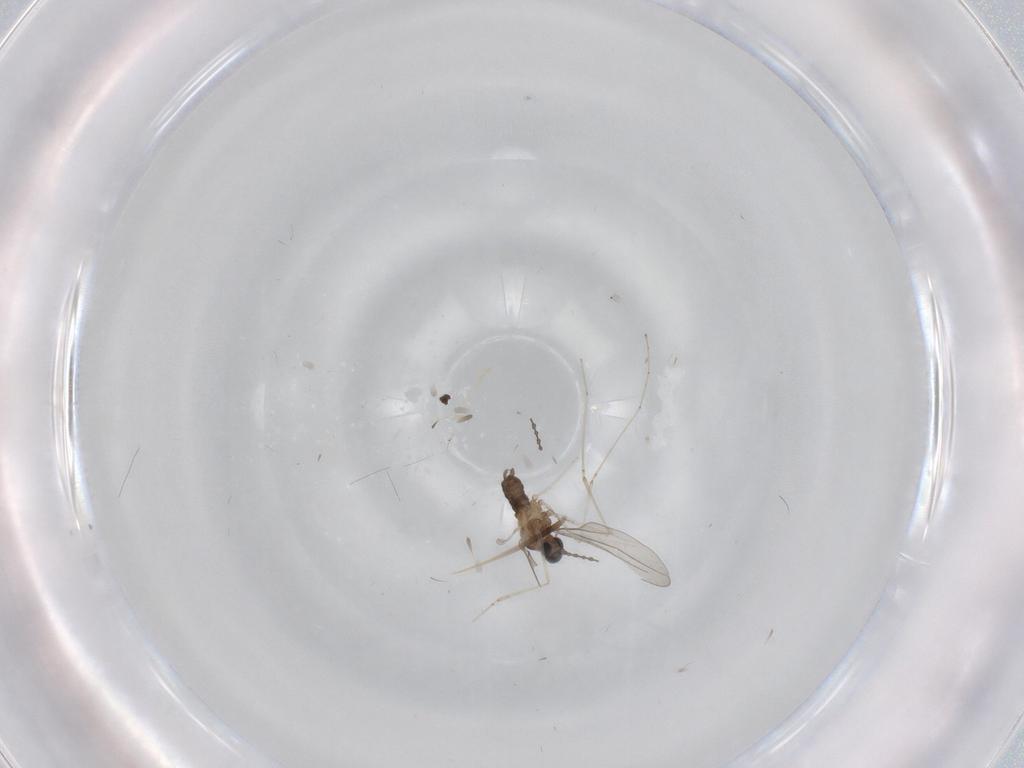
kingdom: Animalia
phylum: Arthropoda
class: Insecta
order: Diptera
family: Cecidomyiidae
